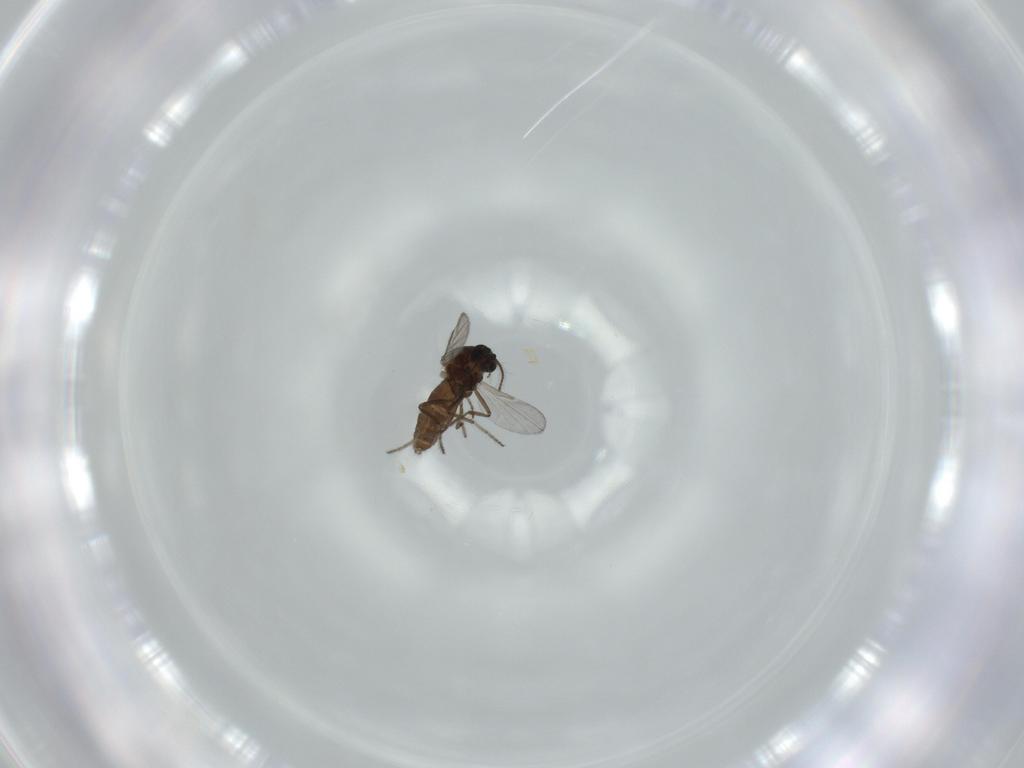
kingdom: Animalia
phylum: Arthropoda
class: Insecta
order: Diptera
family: Ceratopogonidae
